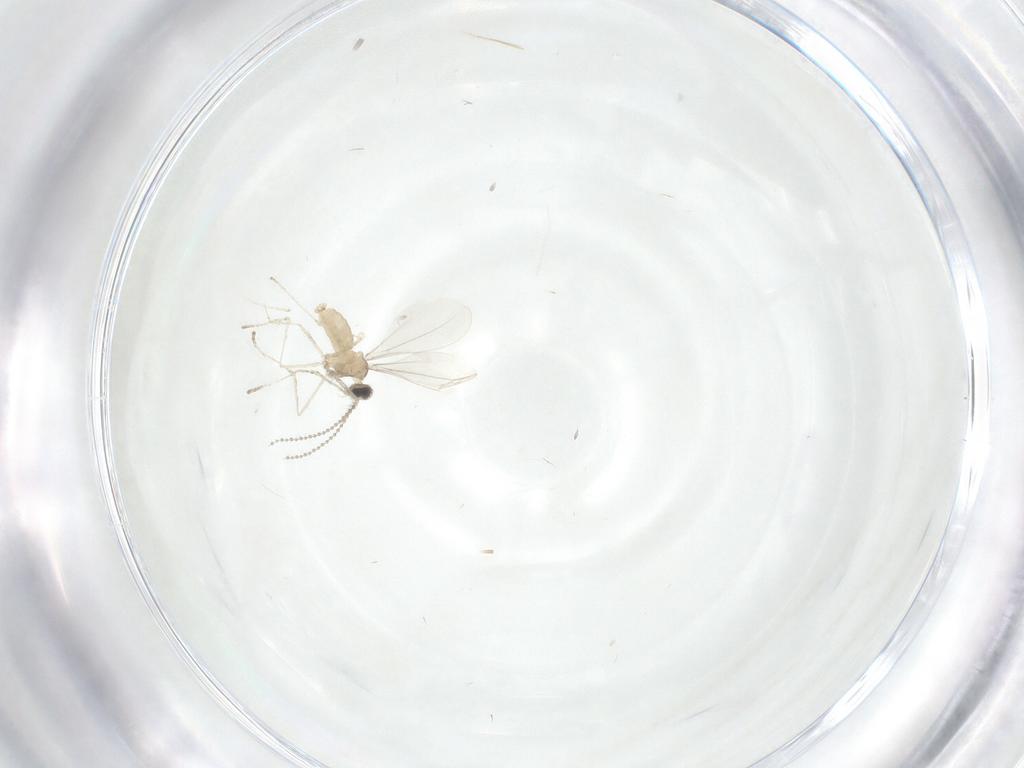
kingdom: Animalia
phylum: Arthropoda
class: Insecta
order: Diptera
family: Cecidomyiidae
